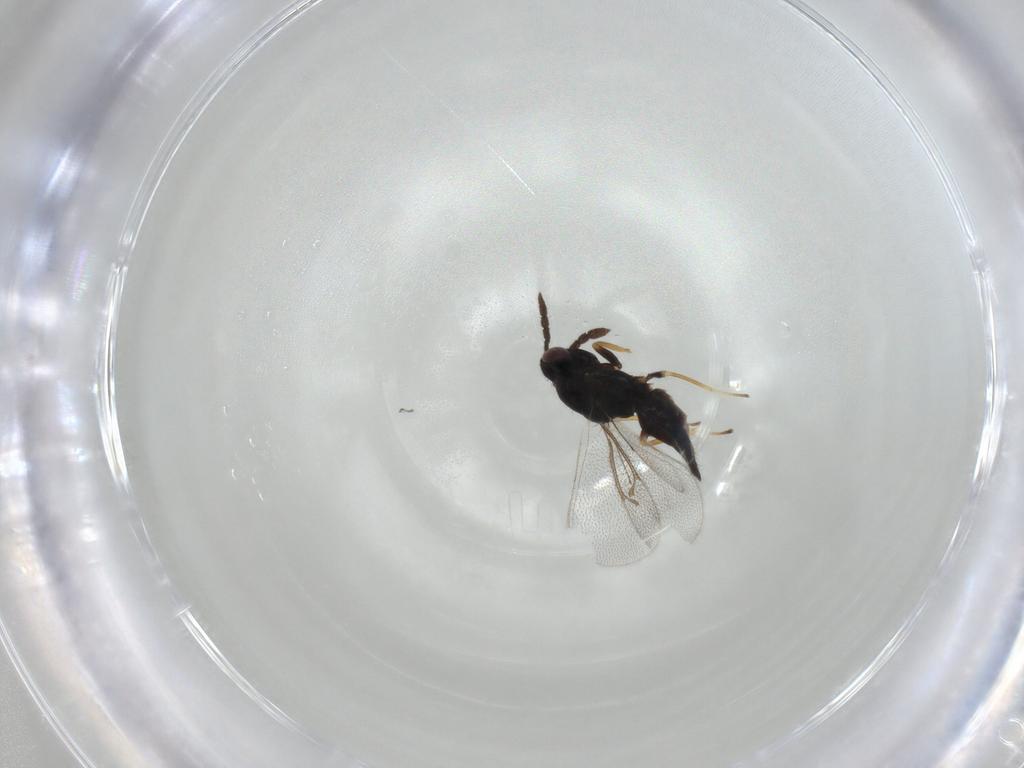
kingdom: Animalia
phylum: Arthropoda
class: Insecta
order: Hymenoptera
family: Eulophidae
